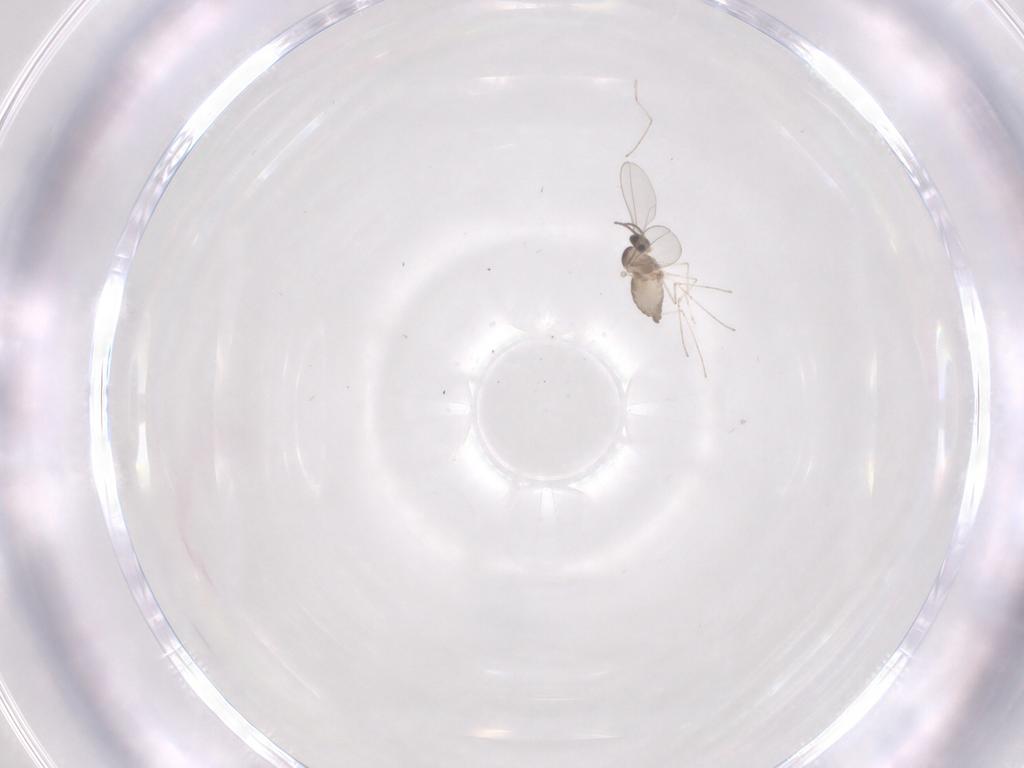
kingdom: Animalia
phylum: Arthropoda
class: Insecta
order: Diptera
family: Cecidomyiidae
